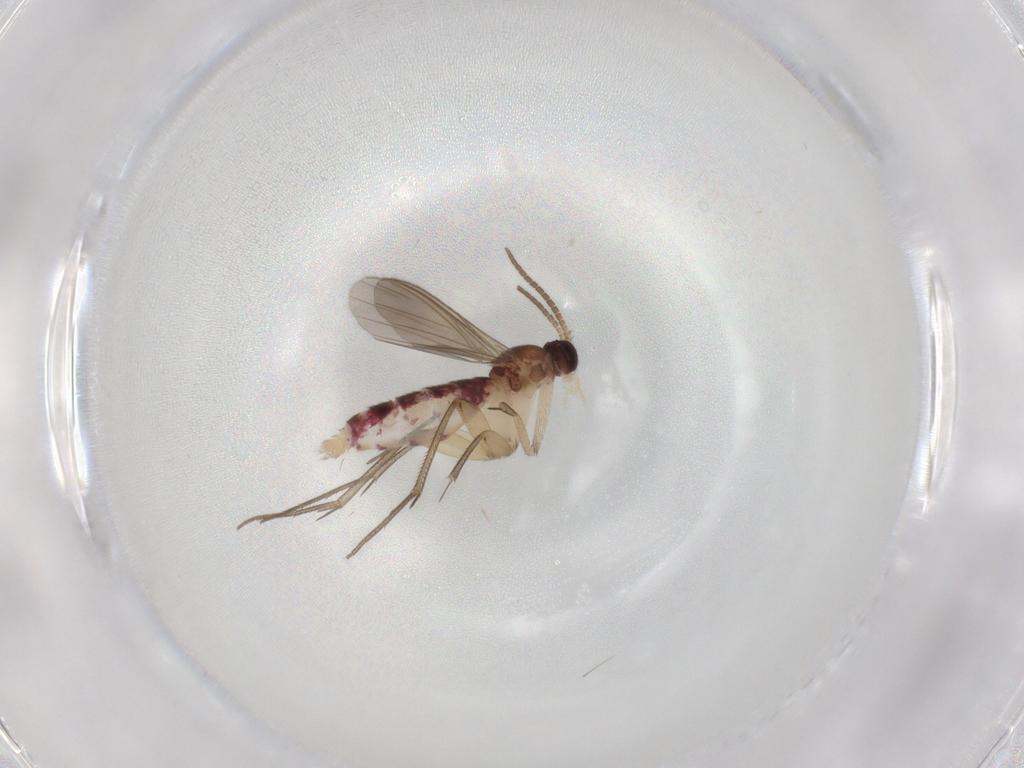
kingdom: Animalia
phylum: Arthropoda
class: Insecta
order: Diptera
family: Mycetophilidae
